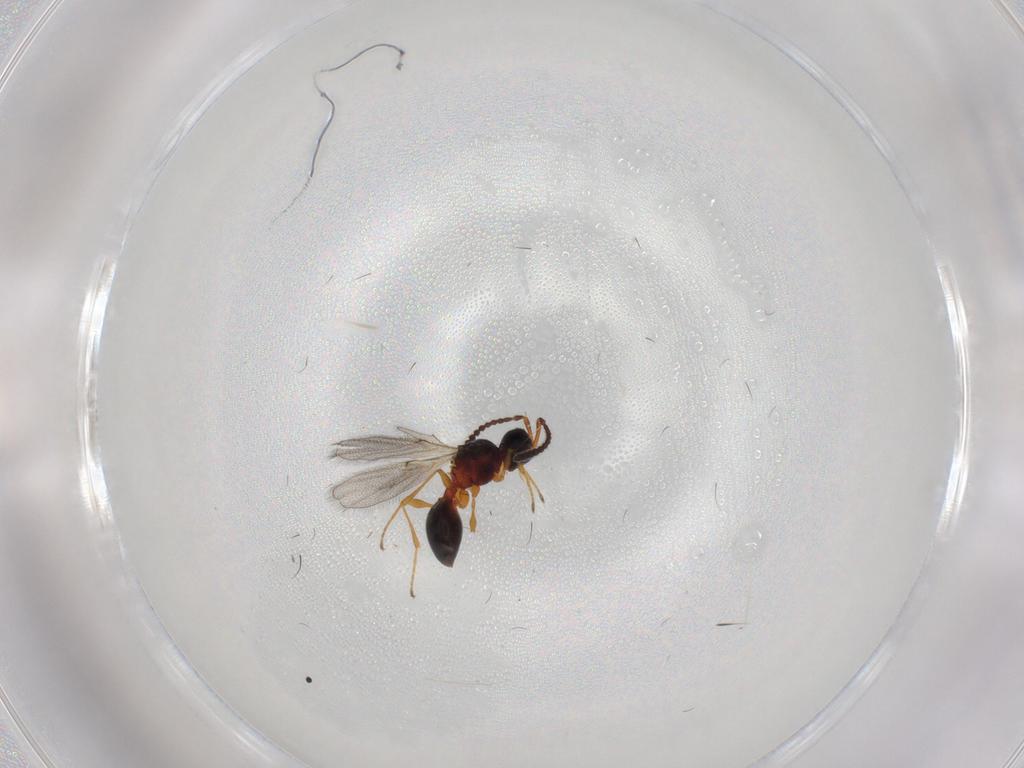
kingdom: Animalia
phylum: Arthropoda
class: Insecta
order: Hymenoptera
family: Diapriidae
